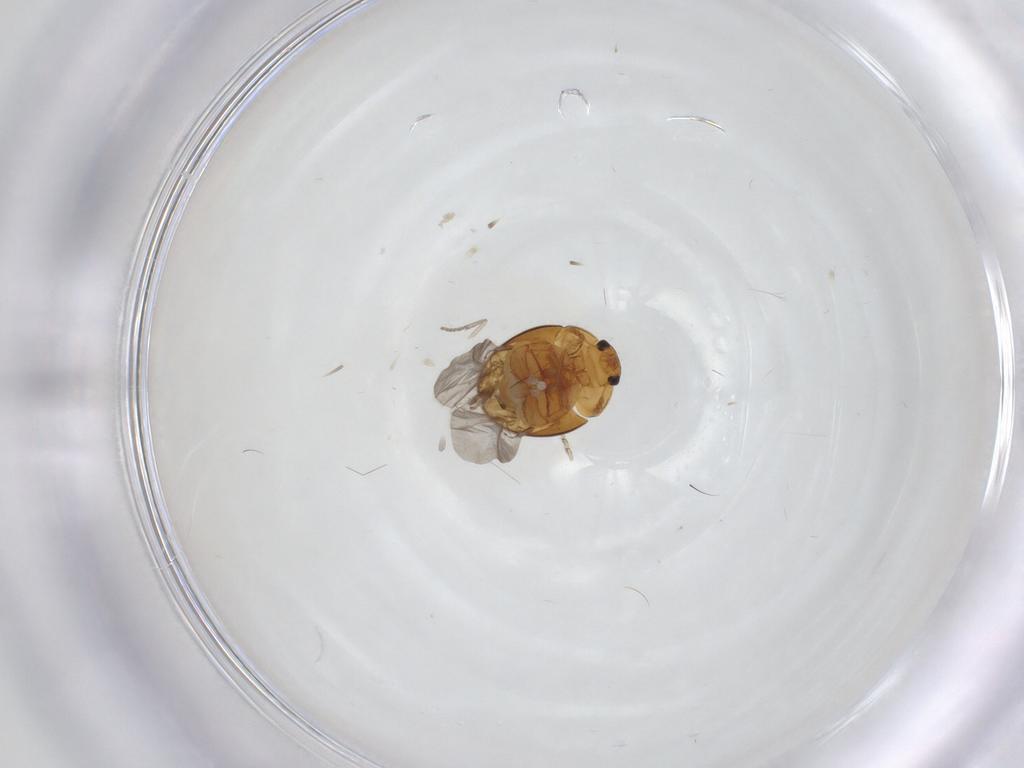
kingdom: Animalia
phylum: Arthropoda
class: Insecta
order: Coleoptera
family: Phalacridae
